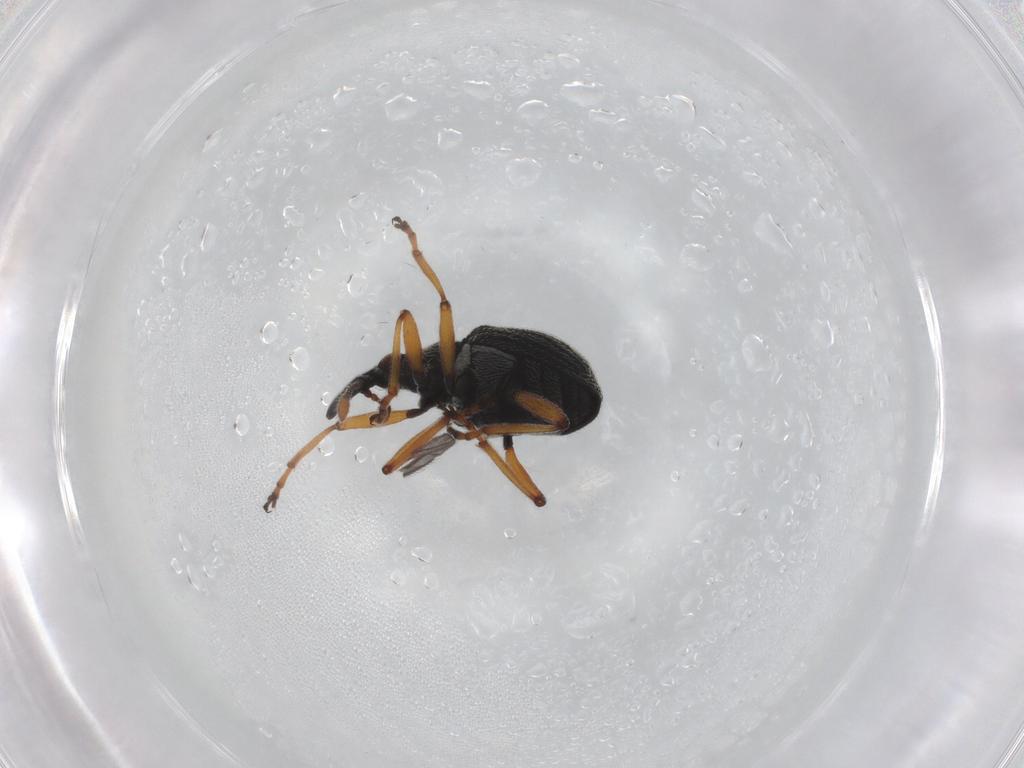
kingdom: Animalia
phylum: Arthropoda
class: Insecta
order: Coleoptera
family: Brentidae
